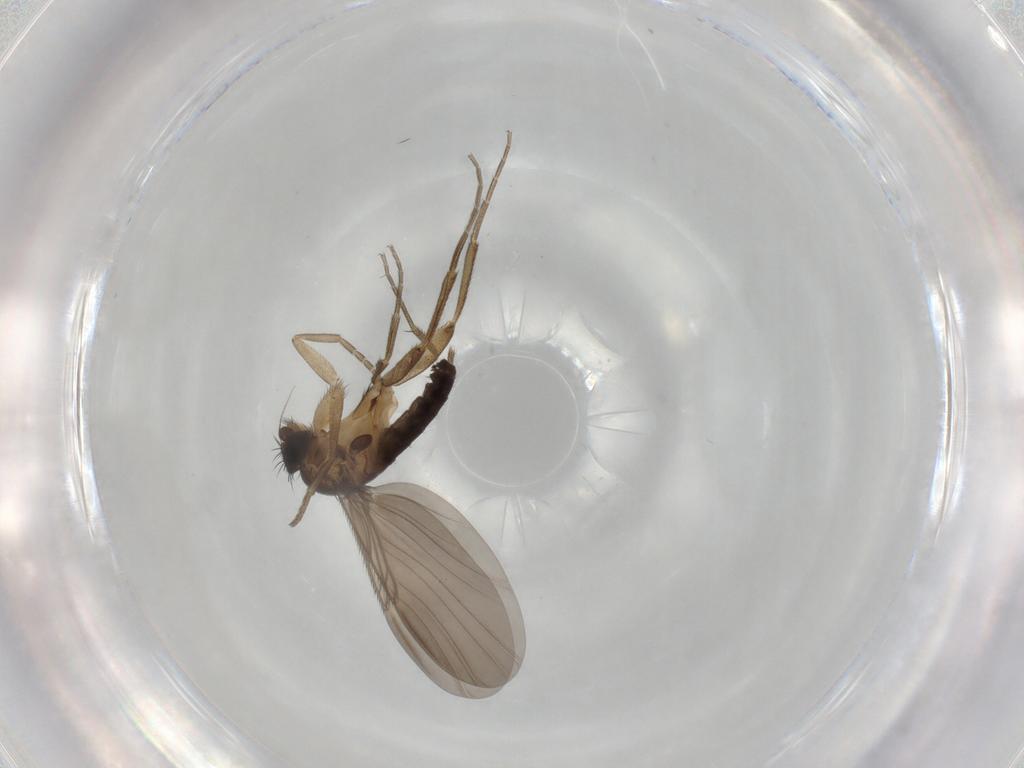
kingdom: Animalia
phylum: Arthropoda
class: Insecta
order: Diptera
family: Phoridae
